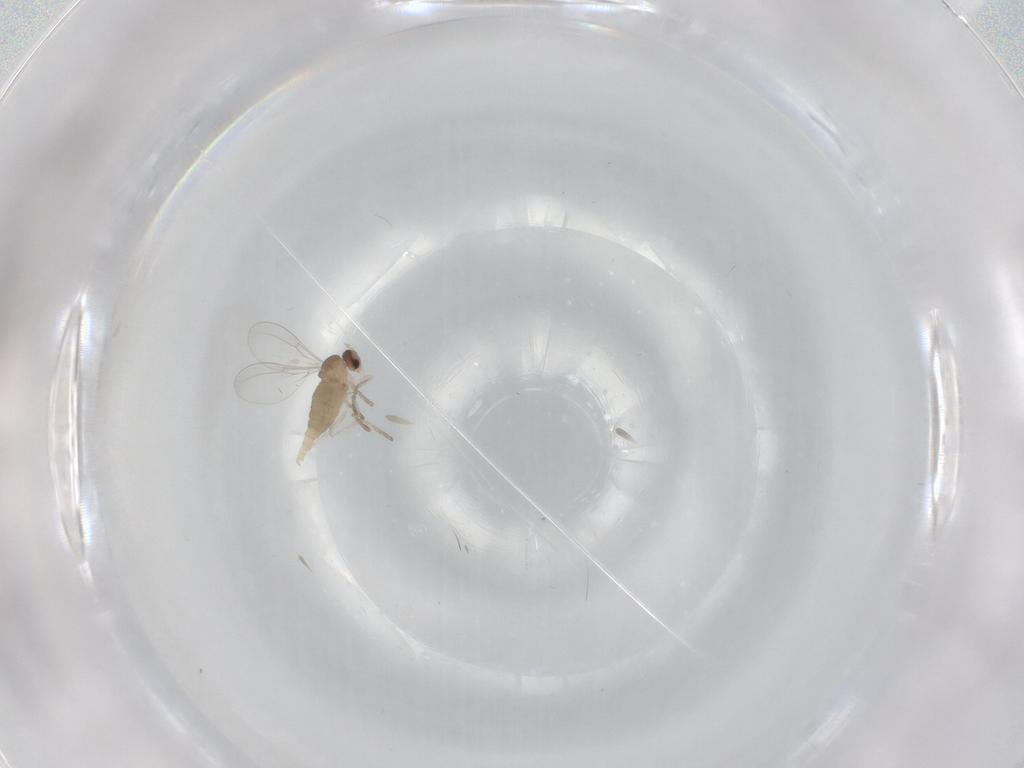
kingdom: Animalia
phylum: Arthropoda
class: Insecta
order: Diptera
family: Cecidomyiidae
